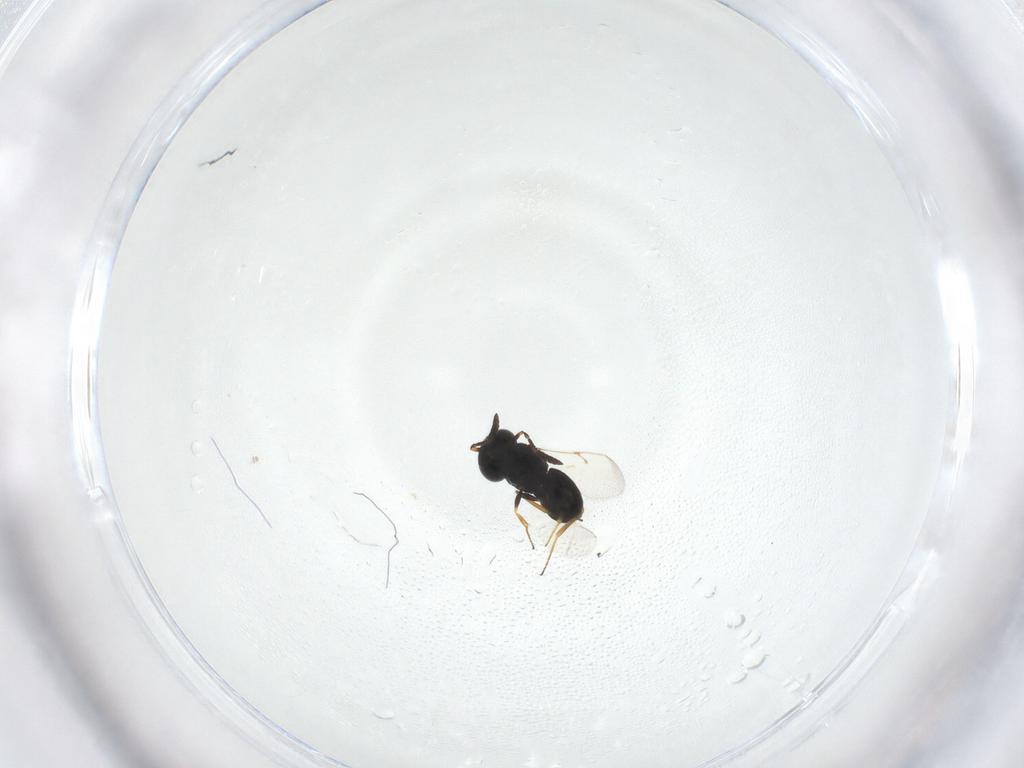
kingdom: Animalia
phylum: Arthropoda
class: Insecta
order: Hymenoptera
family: Scelionidae
